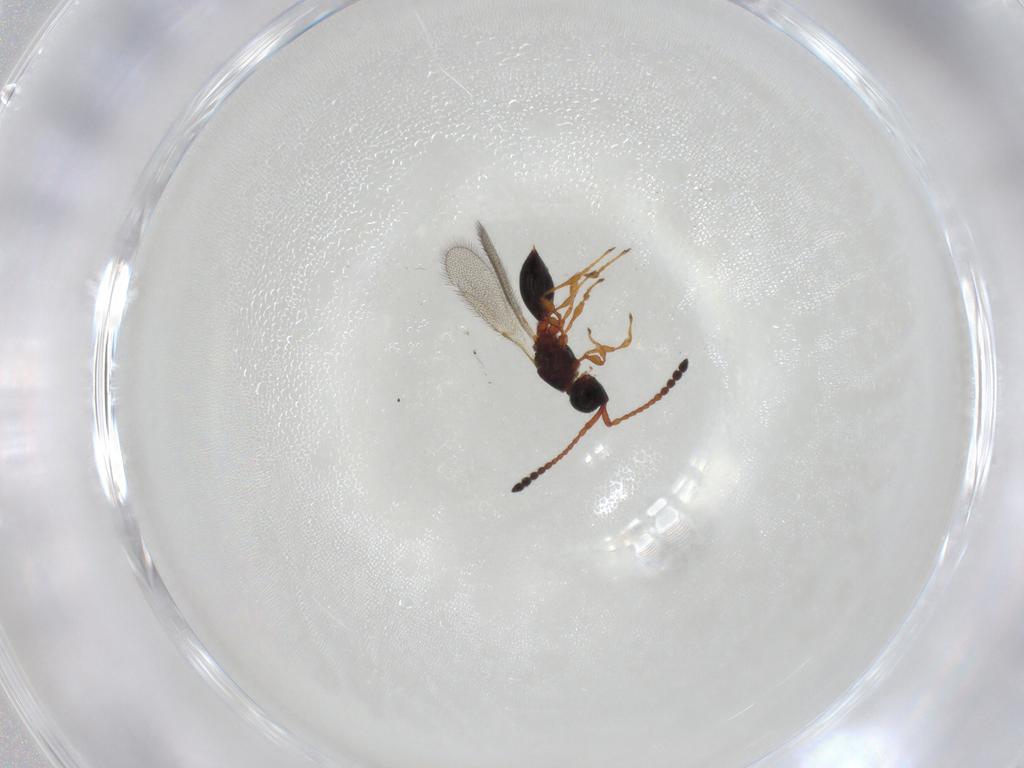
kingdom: Animalia
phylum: Arthropoda
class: Insecta
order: Hymenoptera
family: Diapriidae
